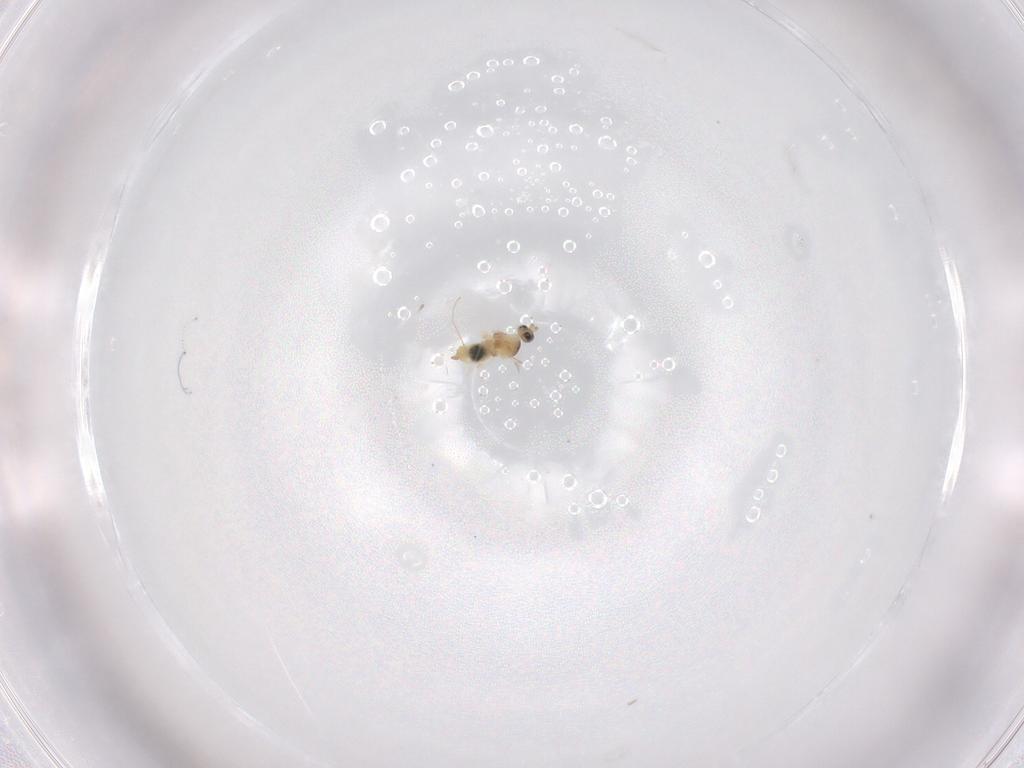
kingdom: Animalia
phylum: Arthropoda
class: Insecta
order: Diptera
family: Cecidomyiidae
